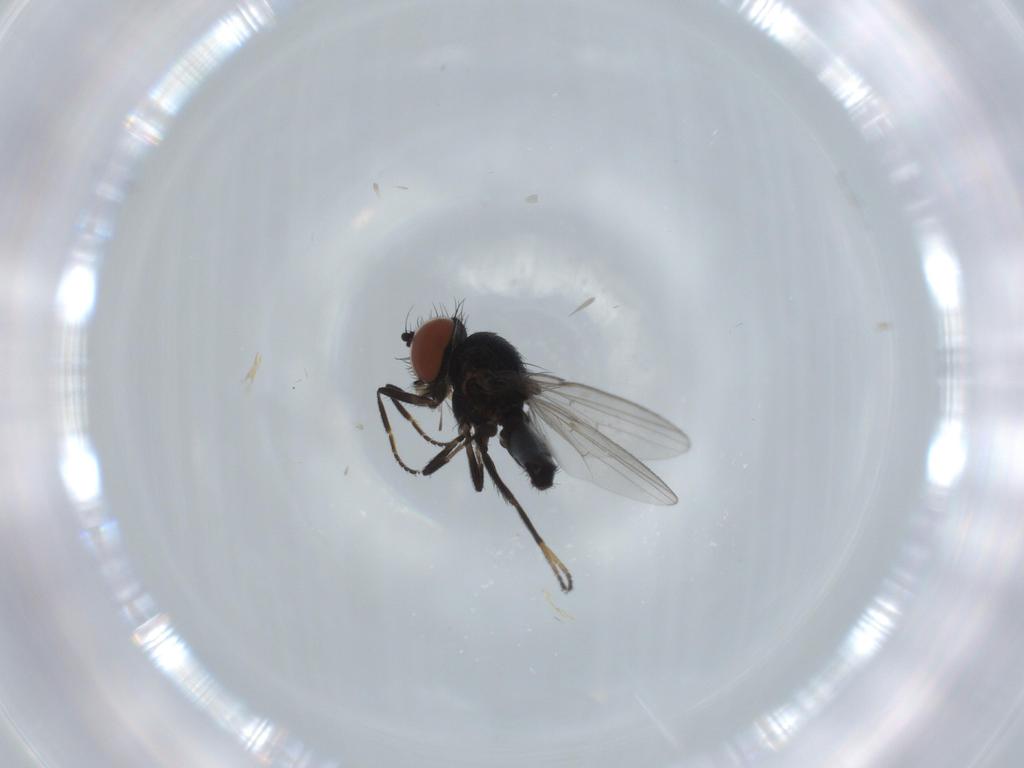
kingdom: Animalia
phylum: Arthropoda
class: Insecta
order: Diptera
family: Milichiidae
